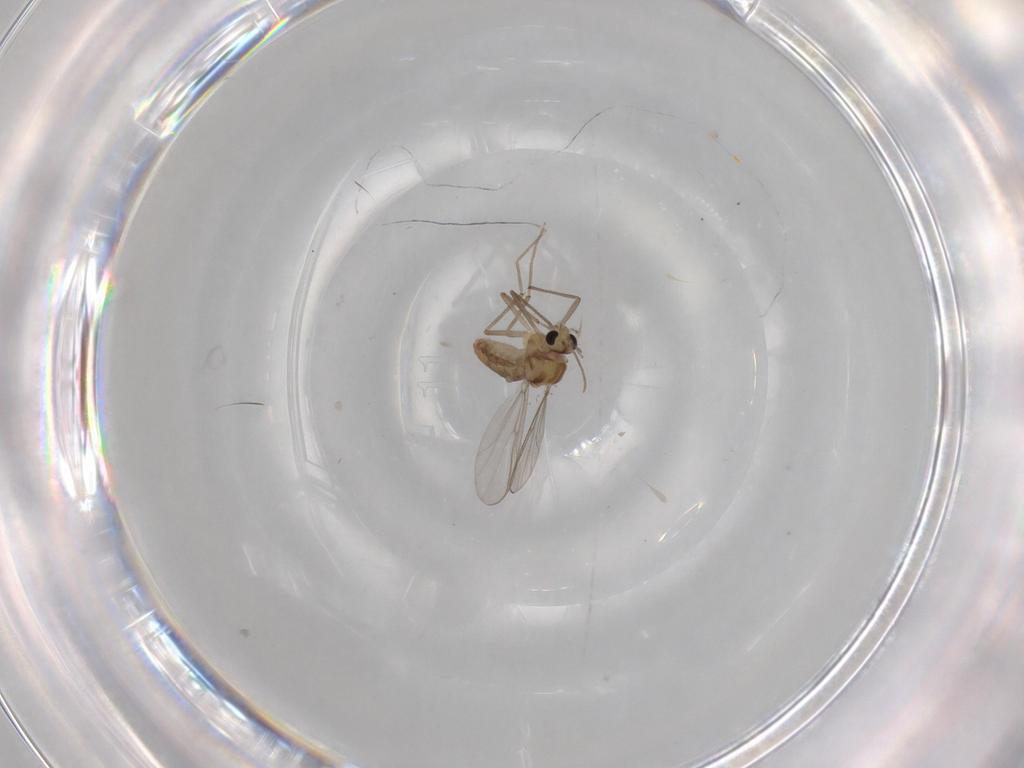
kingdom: Animalia
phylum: Arthropoda
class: Insecta
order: Diptera
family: Chironomidae
